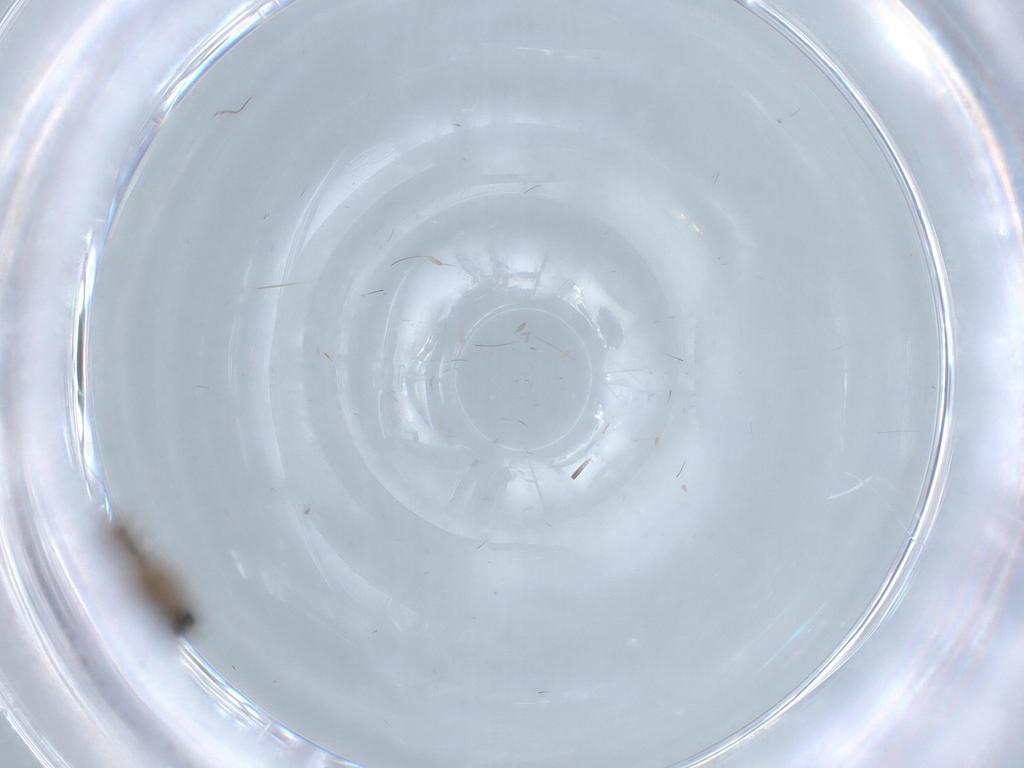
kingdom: Animalia
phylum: Arthropoda
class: Insecta
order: Diptera
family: Psychodidae
